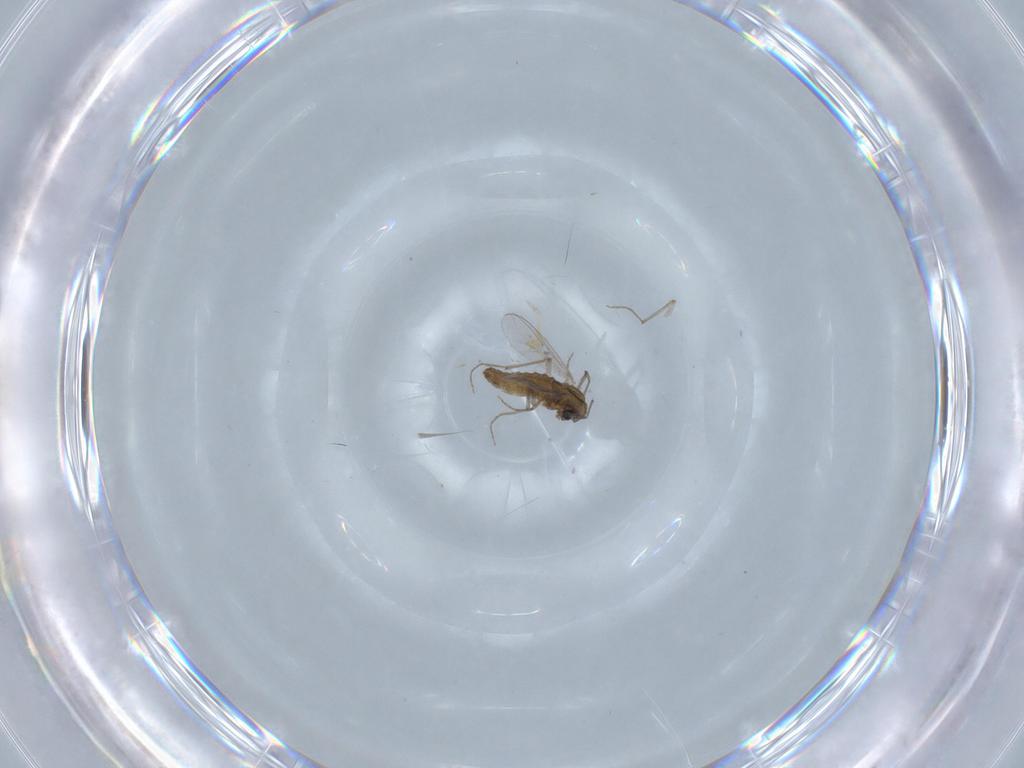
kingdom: Animalia
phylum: Arthropoda
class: Insecta
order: Diptera
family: Chironomidae
